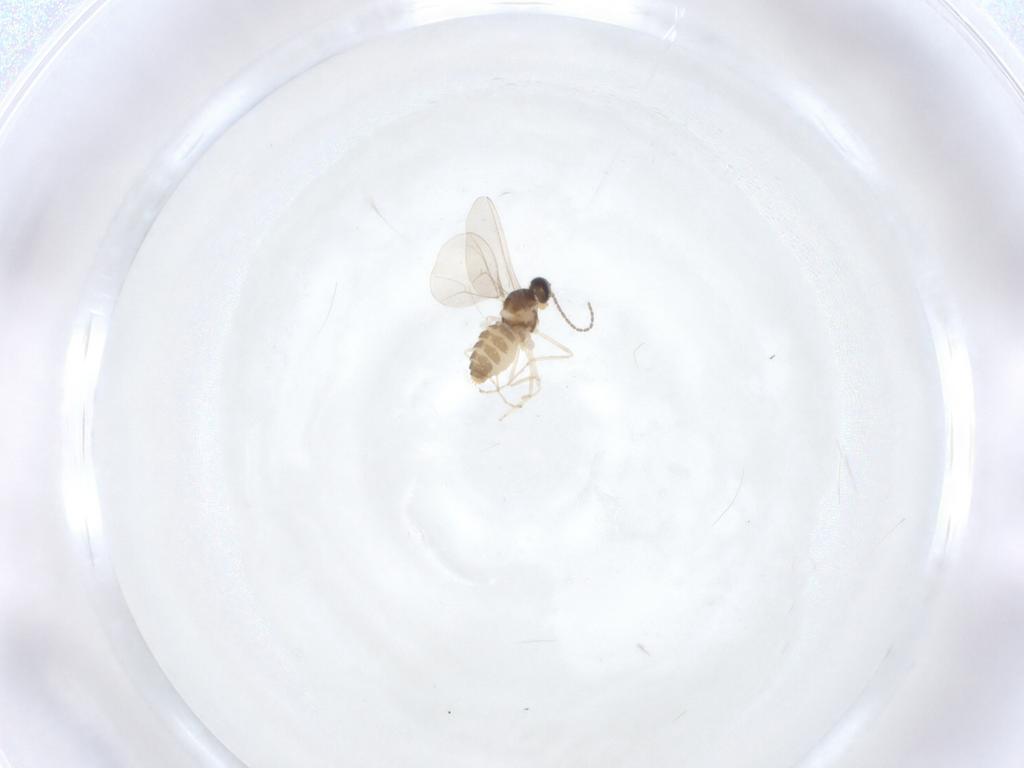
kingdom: Animalia
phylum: Arthropoda
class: Insecta
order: Diptera
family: Cecidomyiidae
